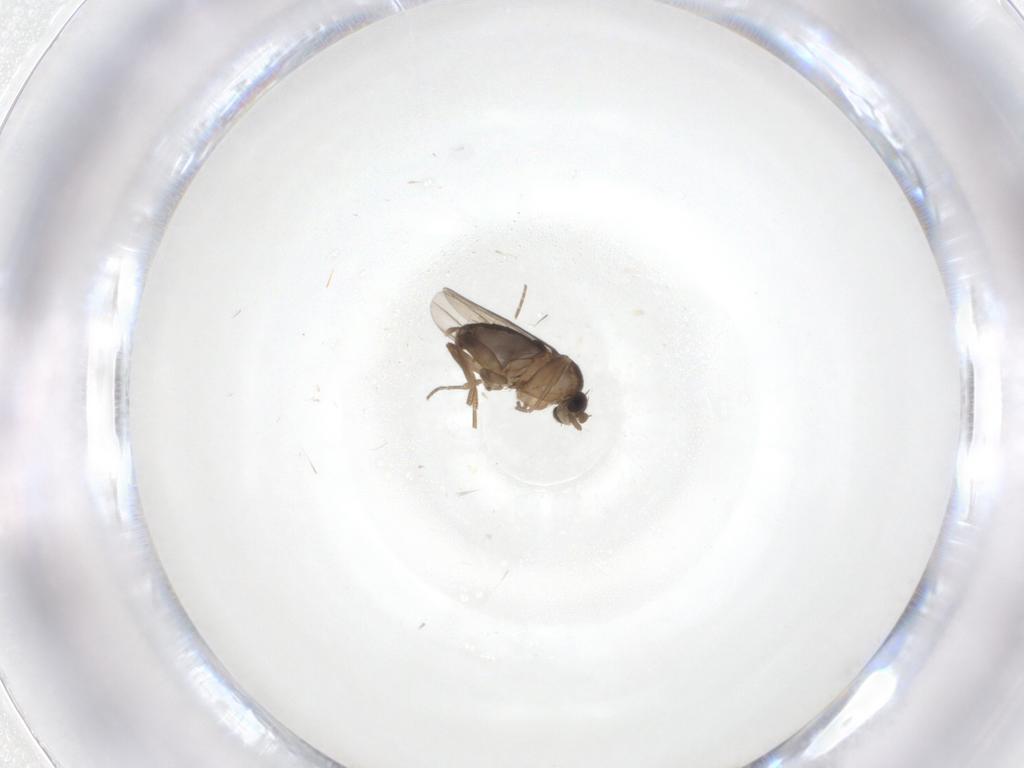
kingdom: Animalia
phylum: Arthropoda
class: Insecta
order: Diptera
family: Phoridae
